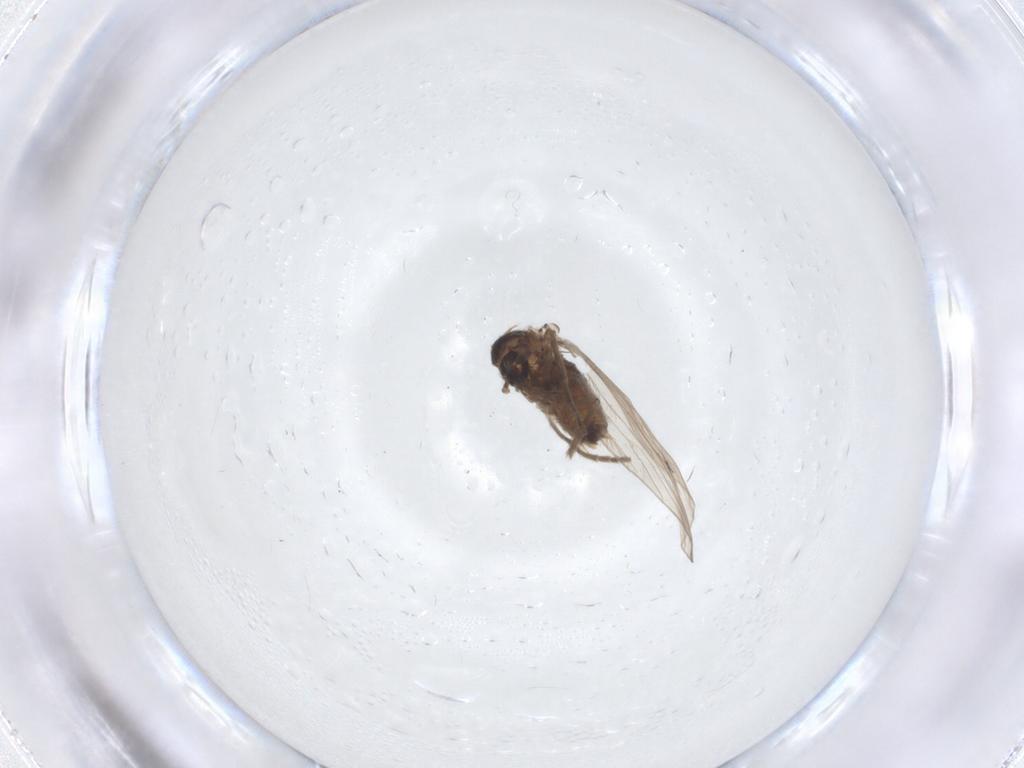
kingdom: Animalia
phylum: Arthropoda
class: Insecta
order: Diptera
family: Psychodidae
